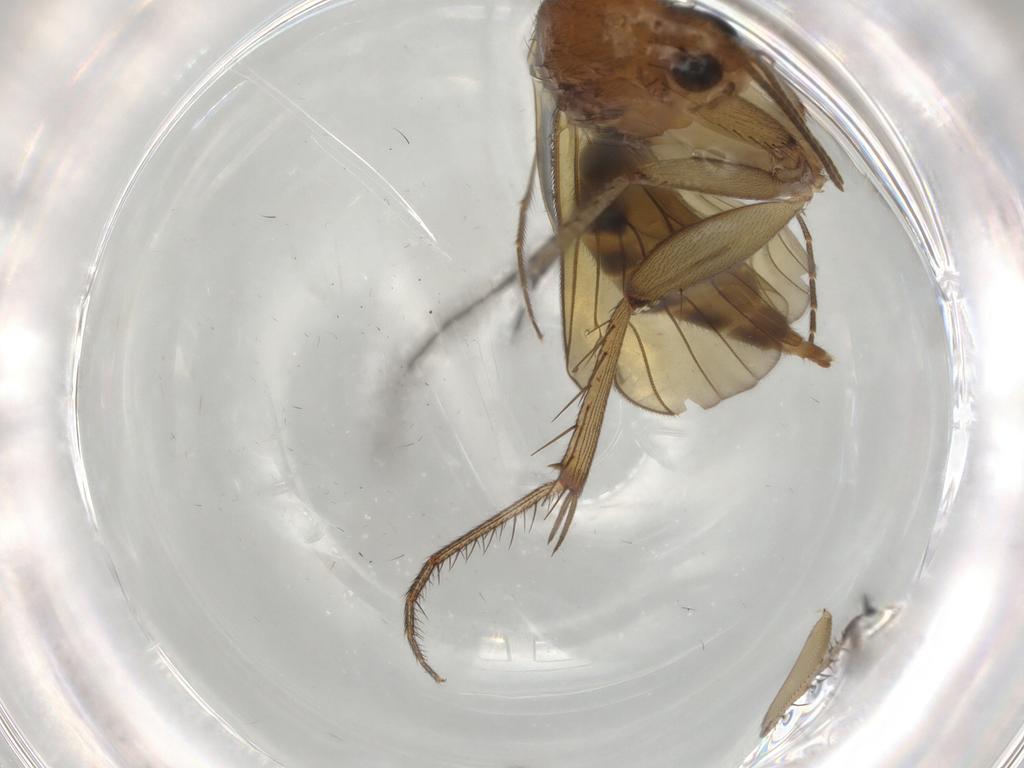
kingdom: Animalia
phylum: Arthropoda
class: Insecta
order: Diptera
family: Mycetophilidae
